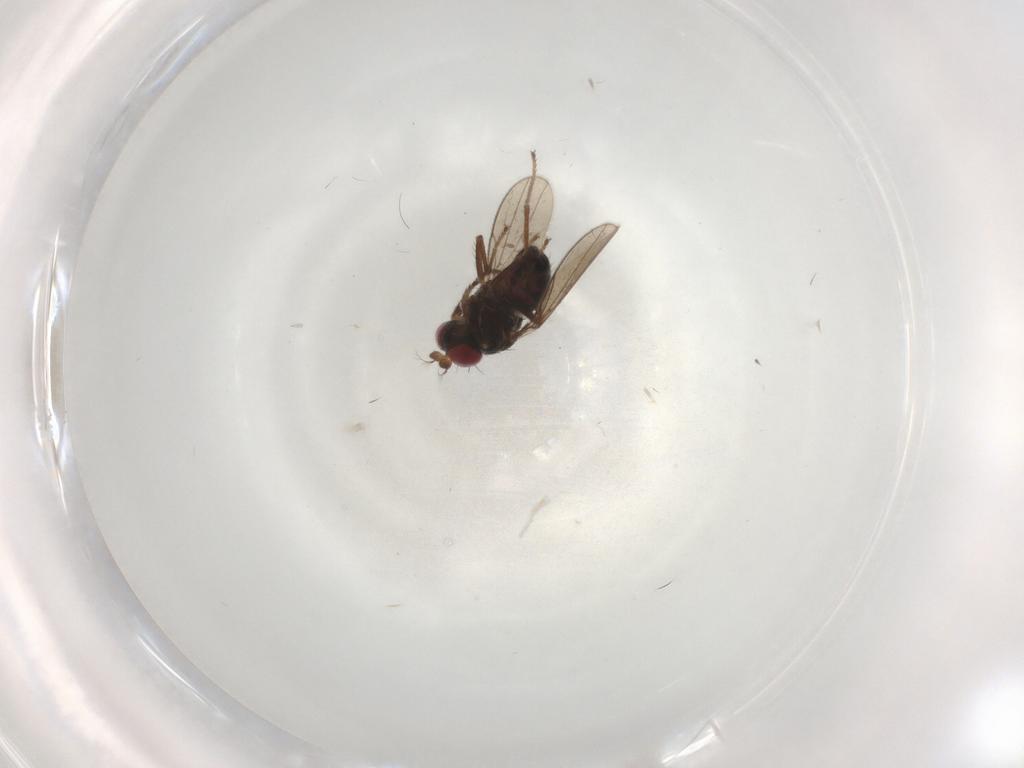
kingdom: Animalia
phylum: Arthropoda
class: Insecta
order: Diptera
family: Ephydridae
